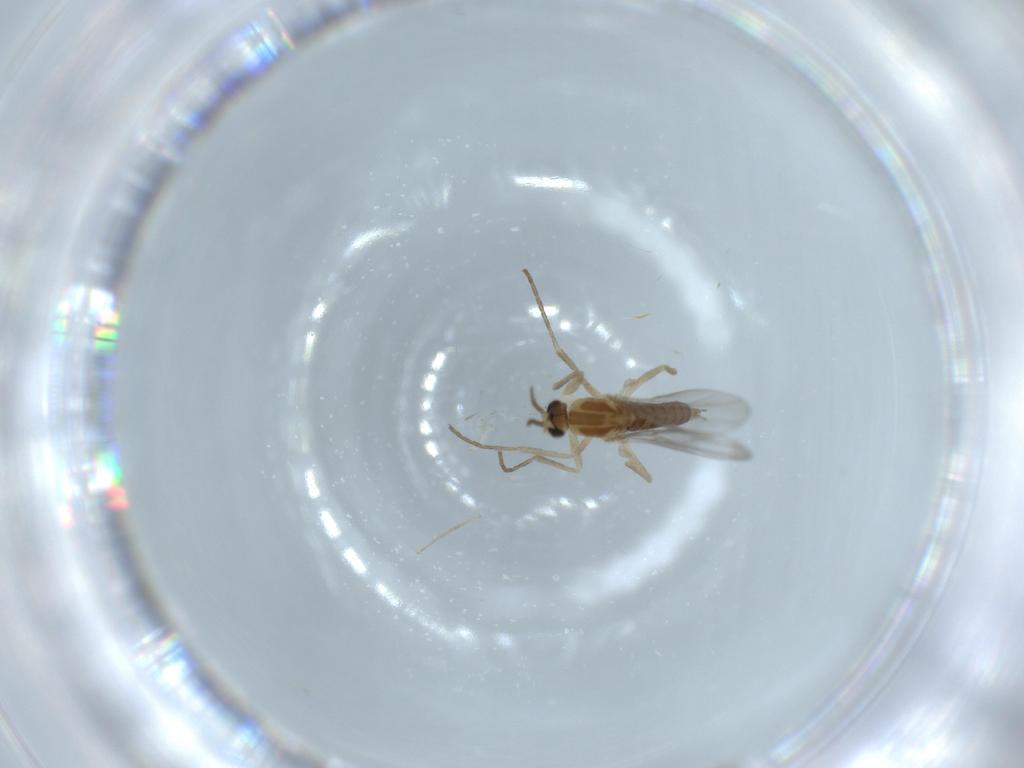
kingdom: Animalia
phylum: Arthropoda
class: Insecta
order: Diptera
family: Cecidomyiidae
